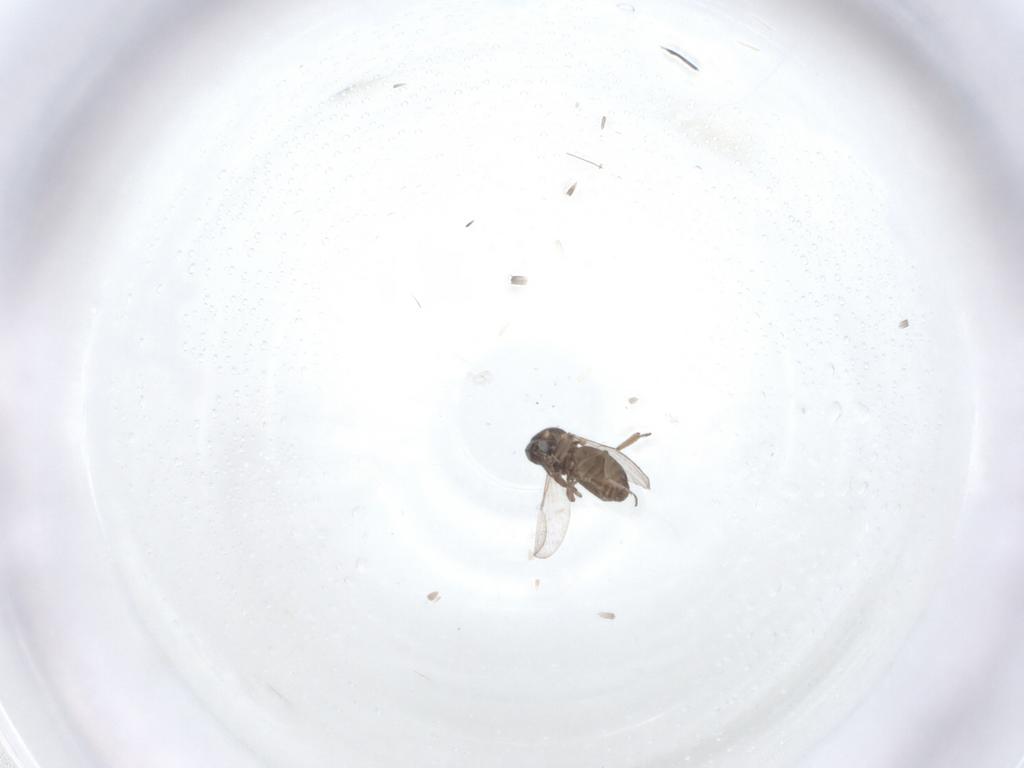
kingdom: Animalia
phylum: Arthropoda
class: Insecta
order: Diptera
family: Ceratopogonidae
